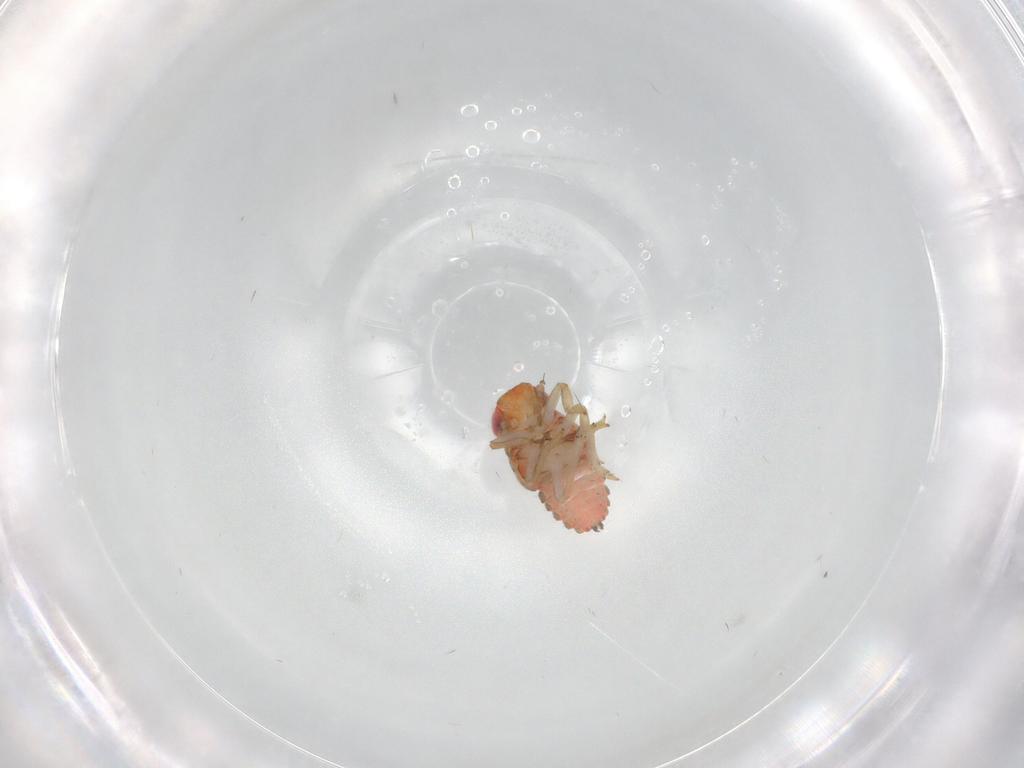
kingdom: Animalia
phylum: Arthropoda
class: Insecta
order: Hemiptera
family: Issidae
